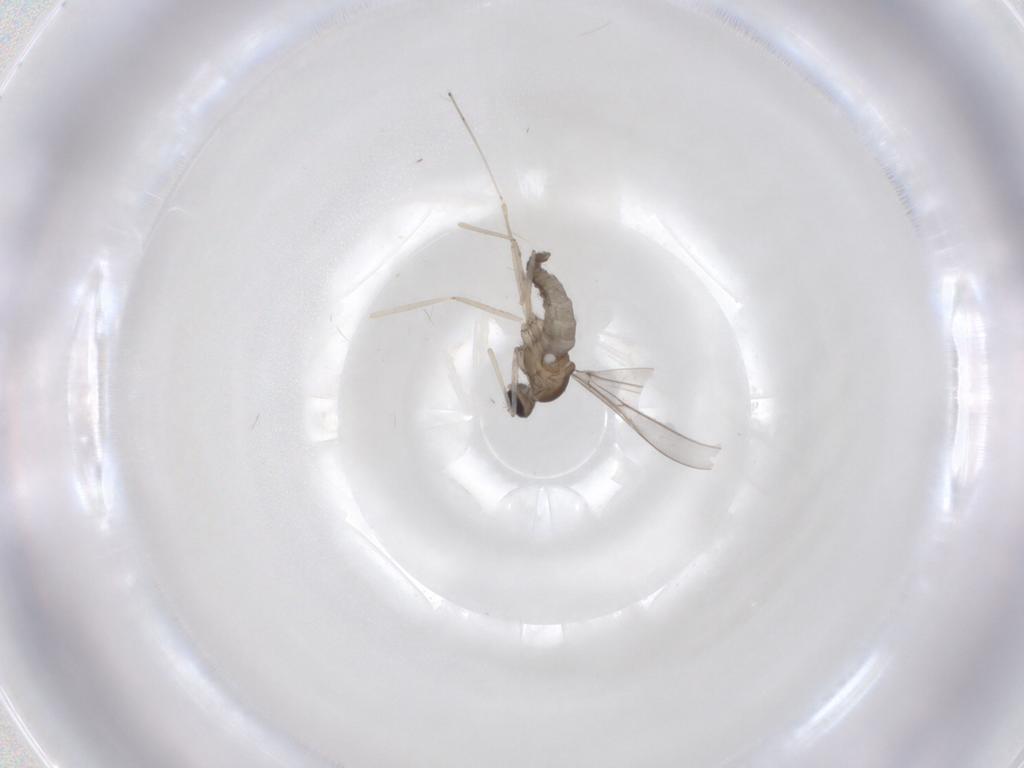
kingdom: Animalia
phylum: Arthropoda
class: Insecta
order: Diptera
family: Cecidomyiidae
